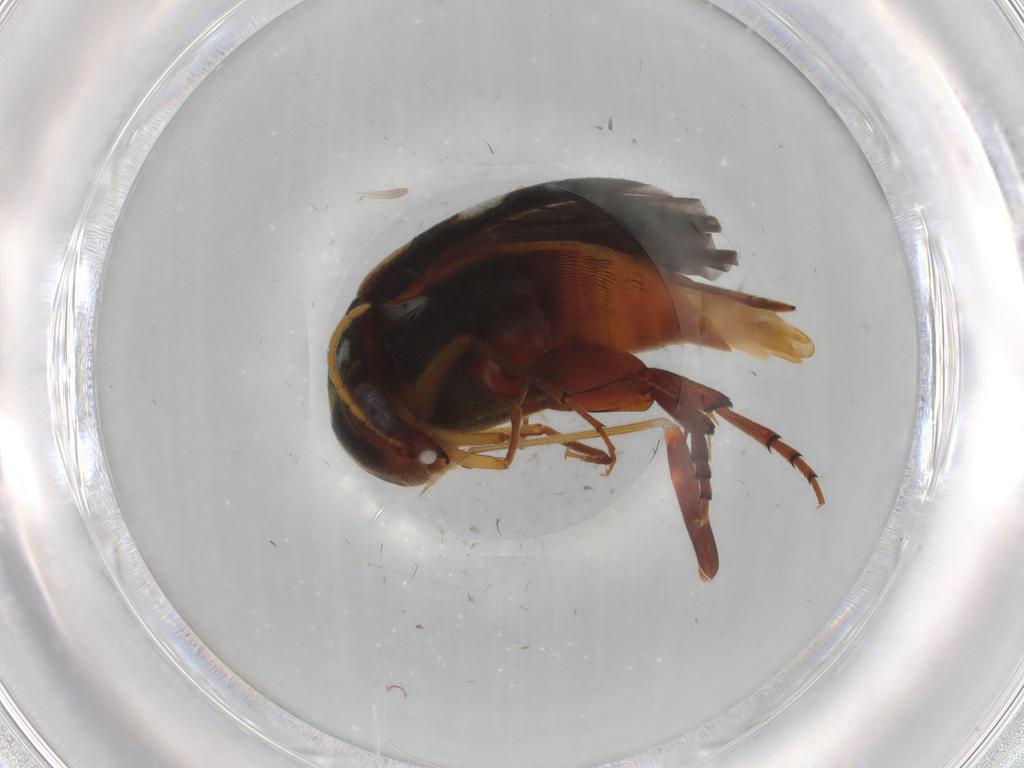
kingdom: Animalia
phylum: Arthropoda
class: Insecta
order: Coleoptera
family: Mordellidae
